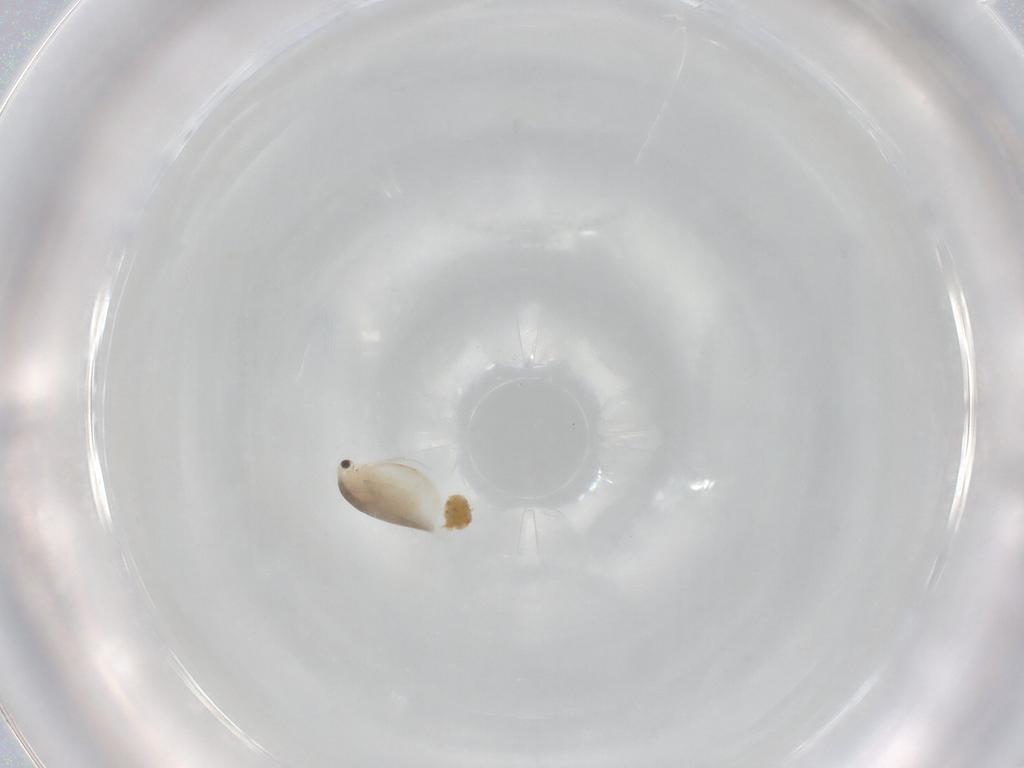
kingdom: Animalia
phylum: Arthropoda
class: Branchiopoda
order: Diplostraca
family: Daphniidae
